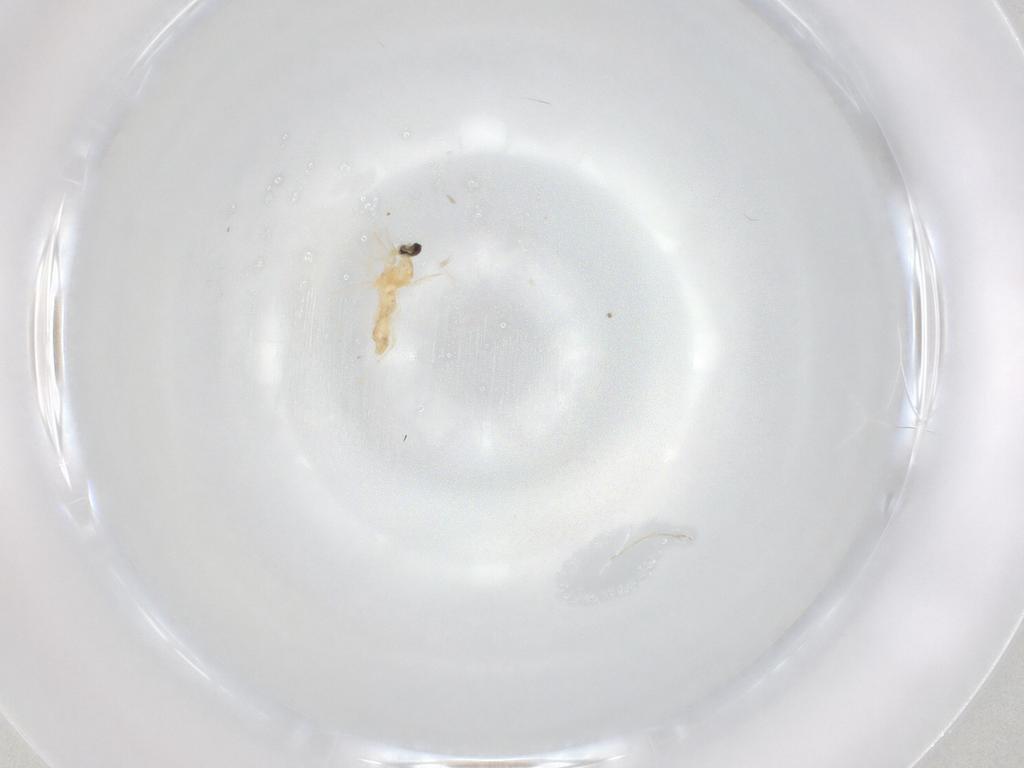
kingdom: Animalia
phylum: Arthropoda
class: Insecta
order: Diptera
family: Cecidomyiidae
